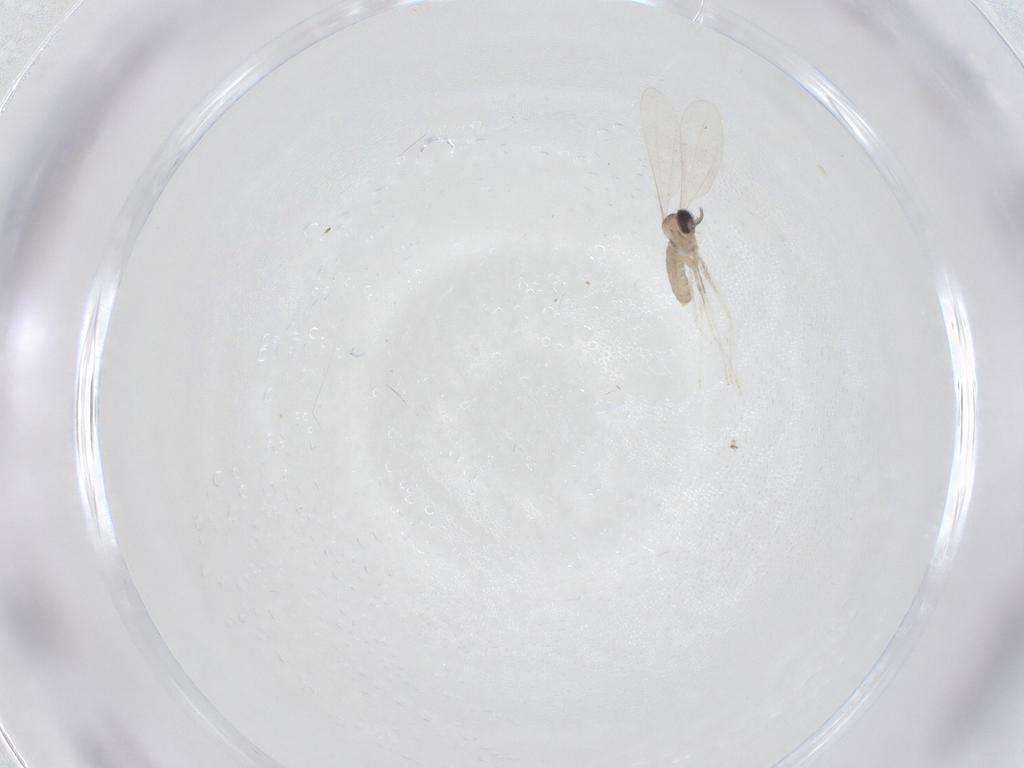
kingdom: Animalia
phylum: Arthropoda
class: Insecta
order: Diptera
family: Chironomidae
